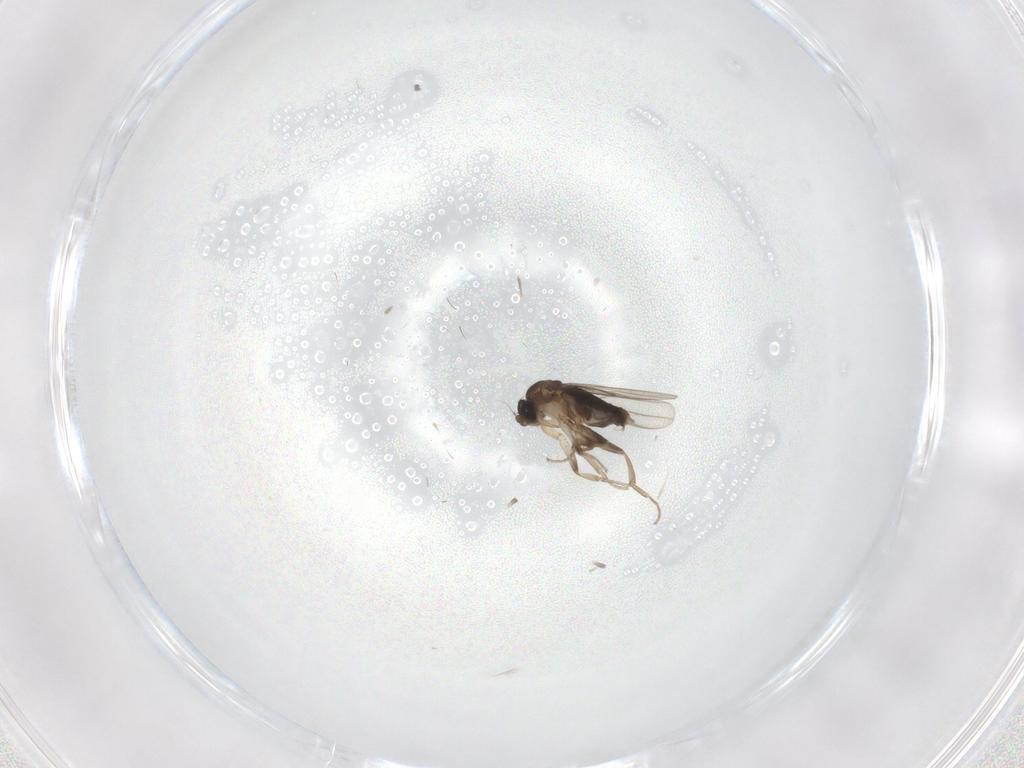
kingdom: Animalia
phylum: Arthropoda
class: Insecta
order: Diptera
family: Phoridae
